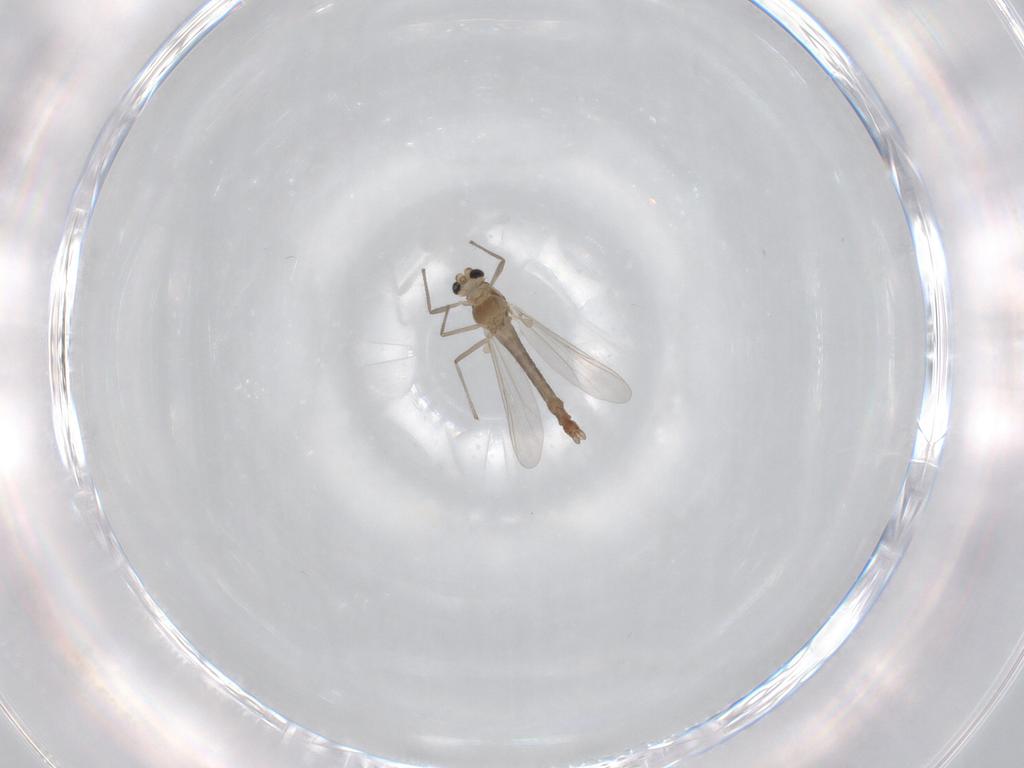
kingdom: Animalia
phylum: Arthropoda
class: Insecta
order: Diptera
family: Chironomidae
